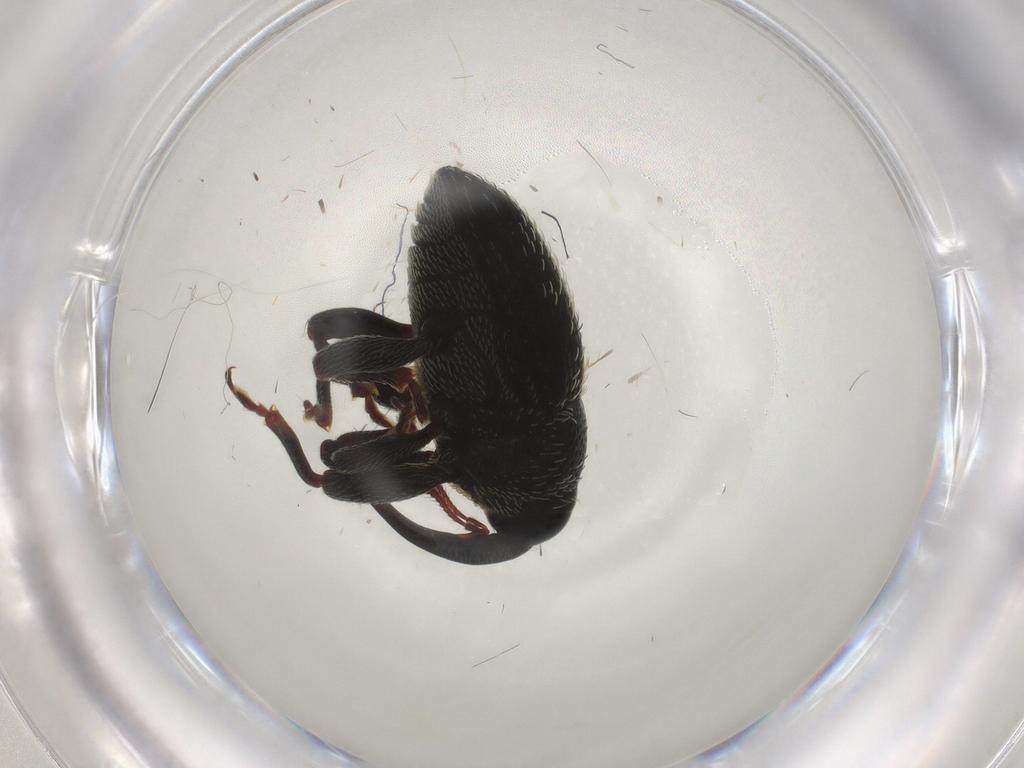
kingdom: Animalia
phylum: Arthropoda
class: Insecta
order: Coleoptera
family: Curculionidae
